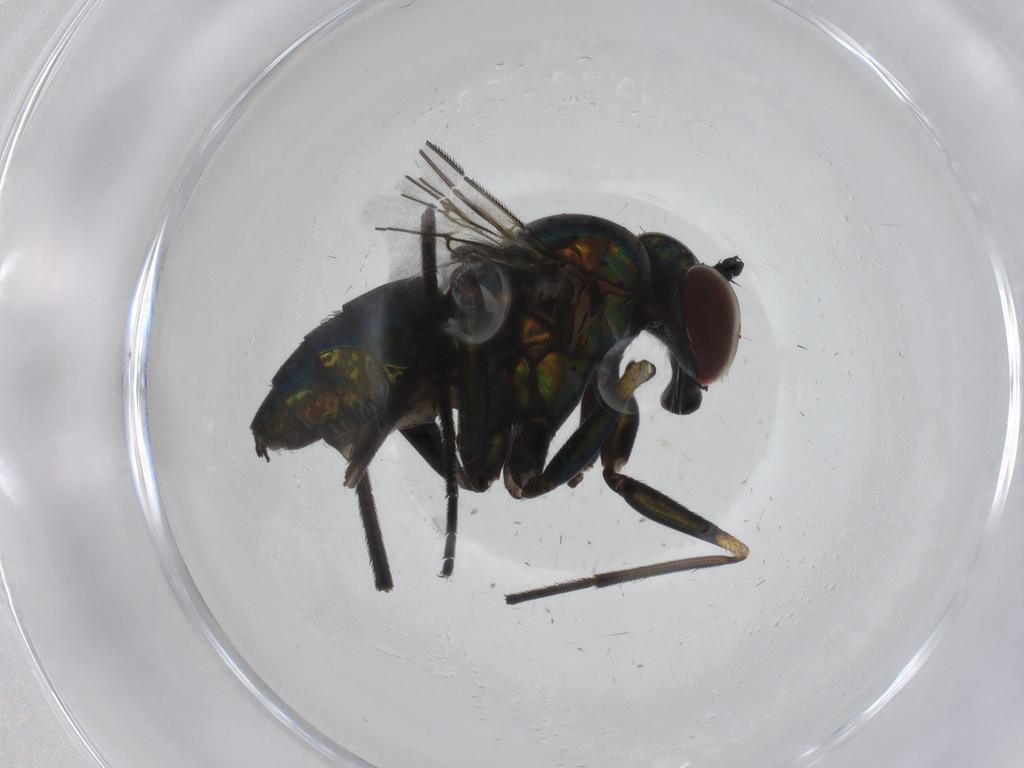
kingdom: Animalia
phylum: Arthropoda
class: Insecta
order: Diptera
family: Dolichopodidae
